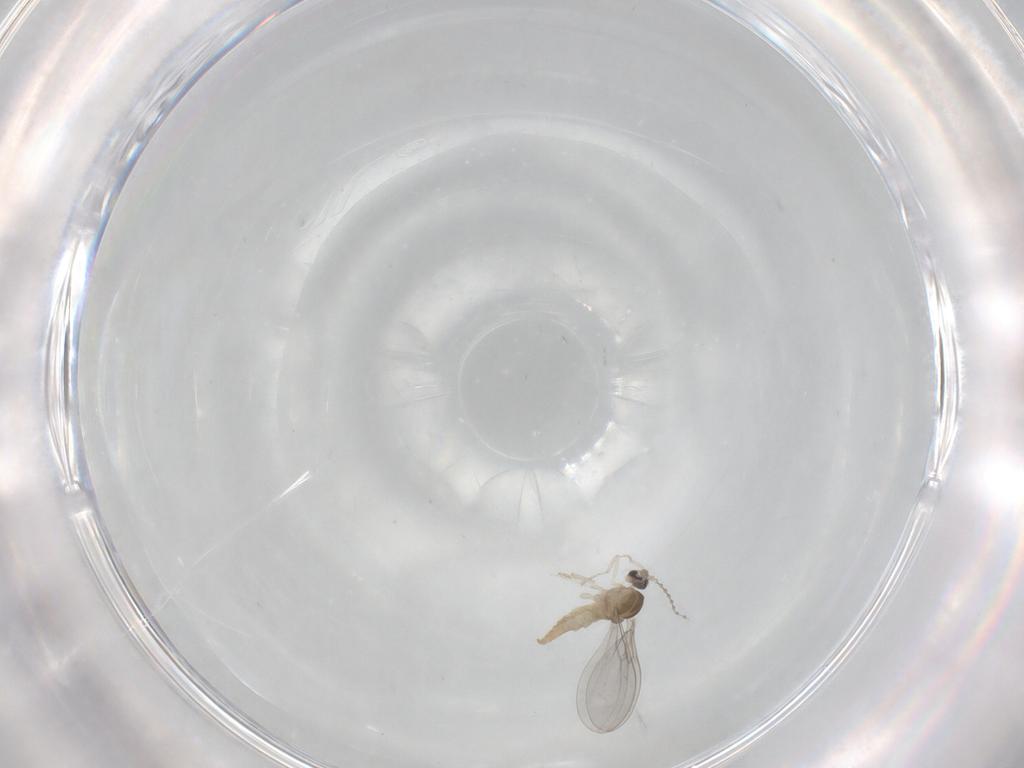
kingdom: Animalia
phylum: Arthropoda
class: Insecta
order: Diptera
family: Cecidomyiidae
